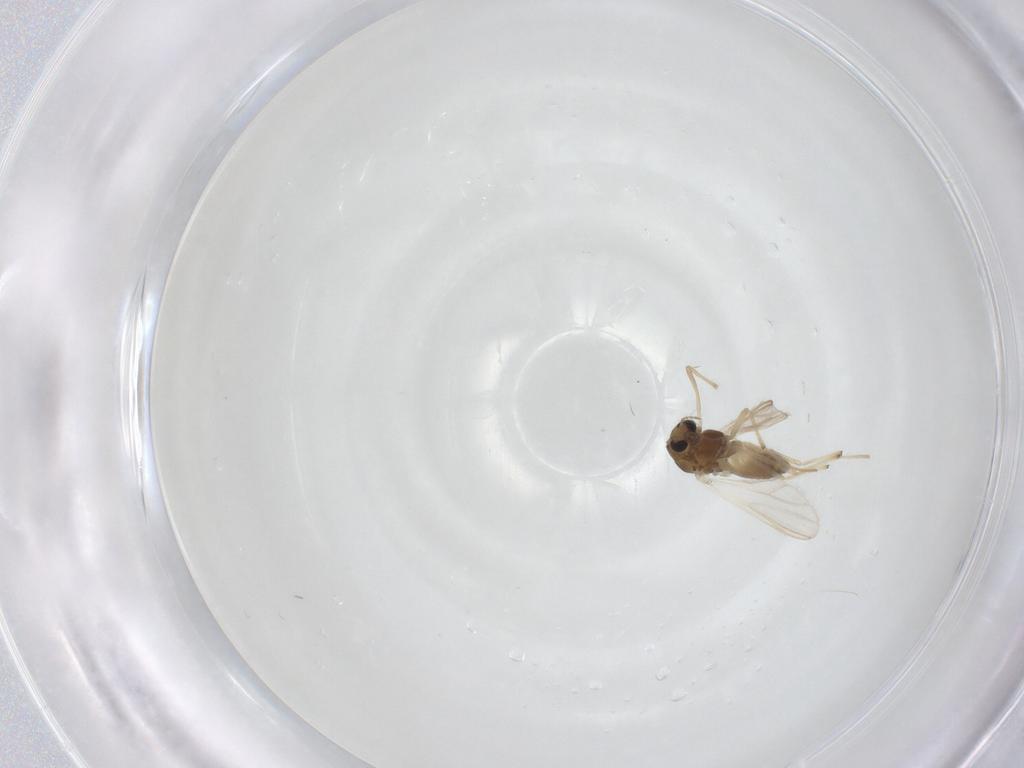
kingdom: Animalia
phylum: Arthropoda
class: Insecta
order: Diptera
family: Chironomidae
